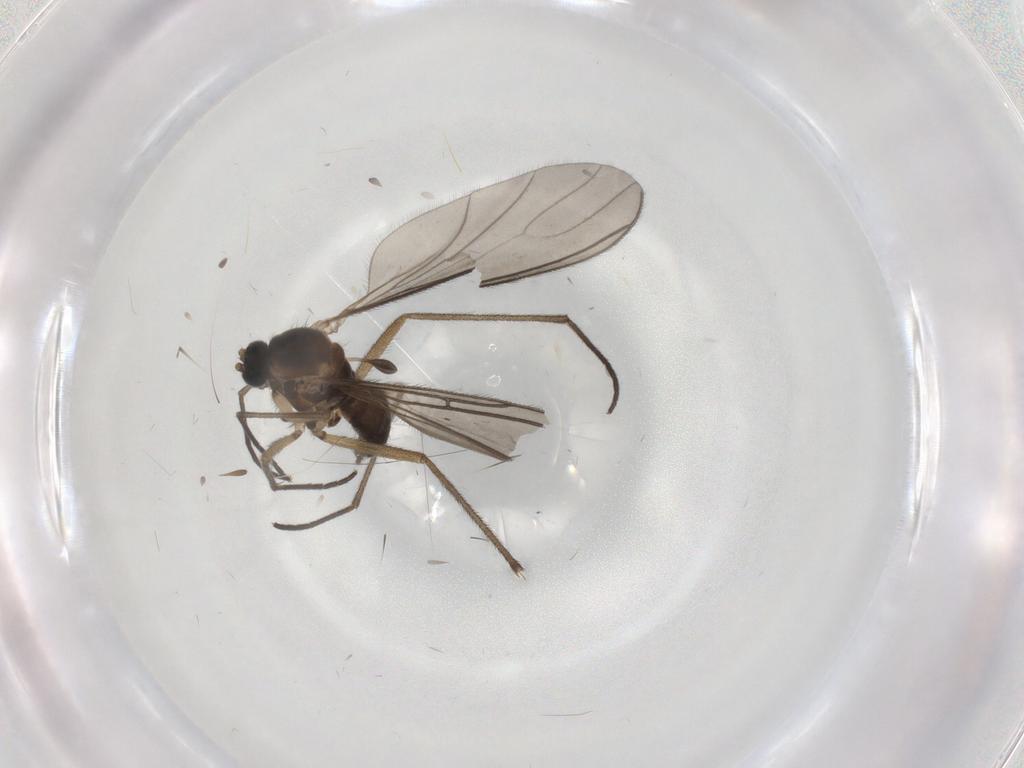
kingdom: Animalia
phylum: Arthropoda
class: Insecta
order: Diptera
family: Sciaridae
